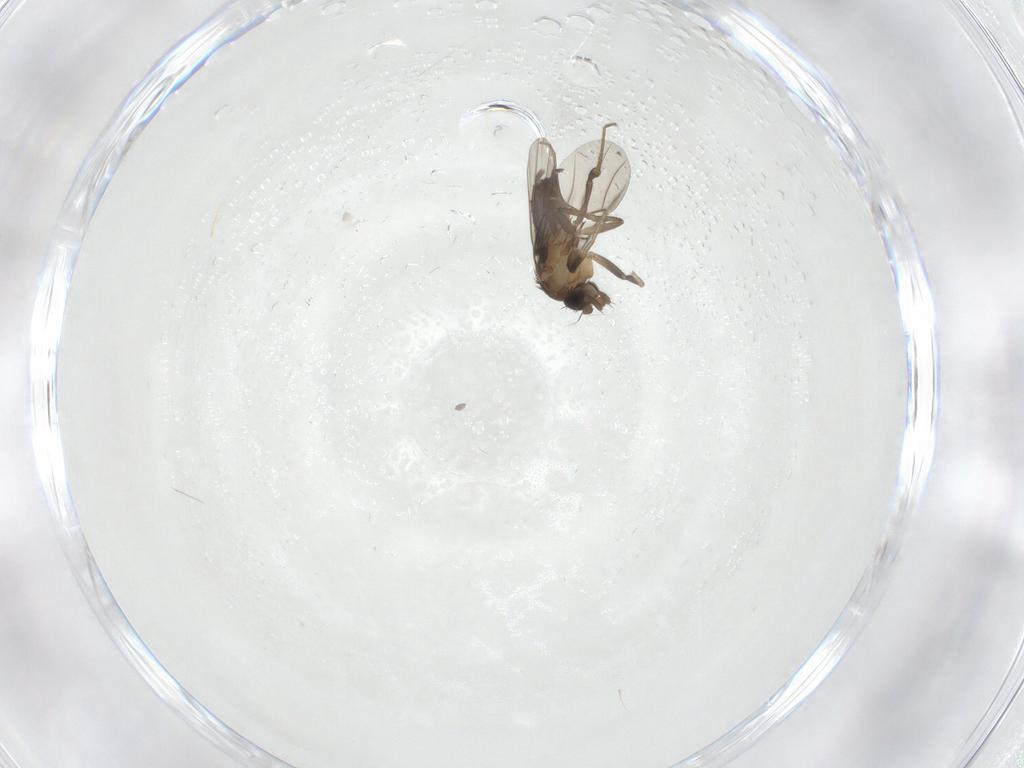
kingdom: Animalia
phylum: Arthropoda
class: Insecta
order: Diptera
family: Phoridae
